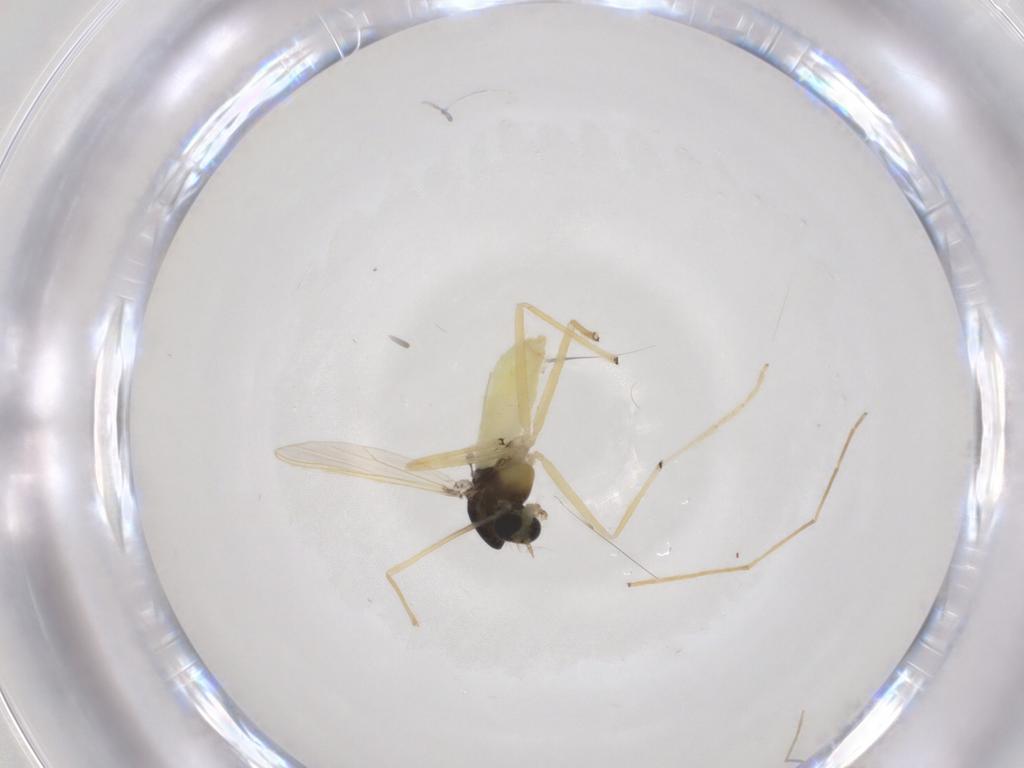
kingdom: Animalia
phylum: Arthropoda
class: Insecta
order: Diptera
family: Chironomidae
